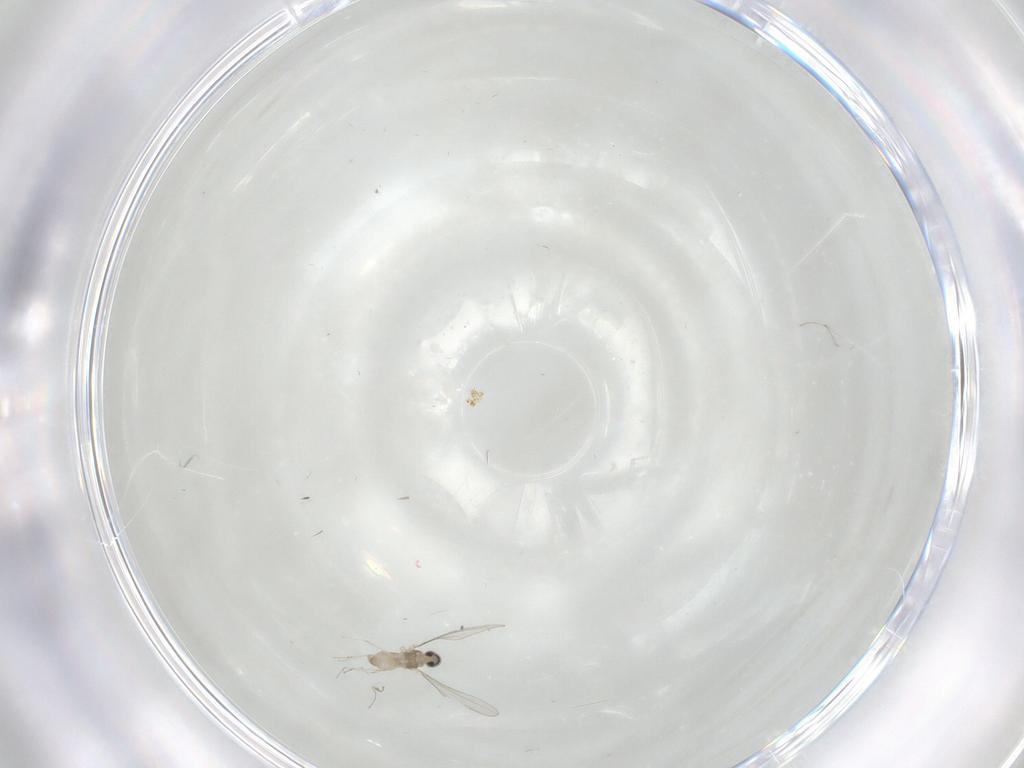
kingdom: Animalia
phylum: Arthropoda
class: Insecta
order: Diptera
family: Cecidomyiidae
